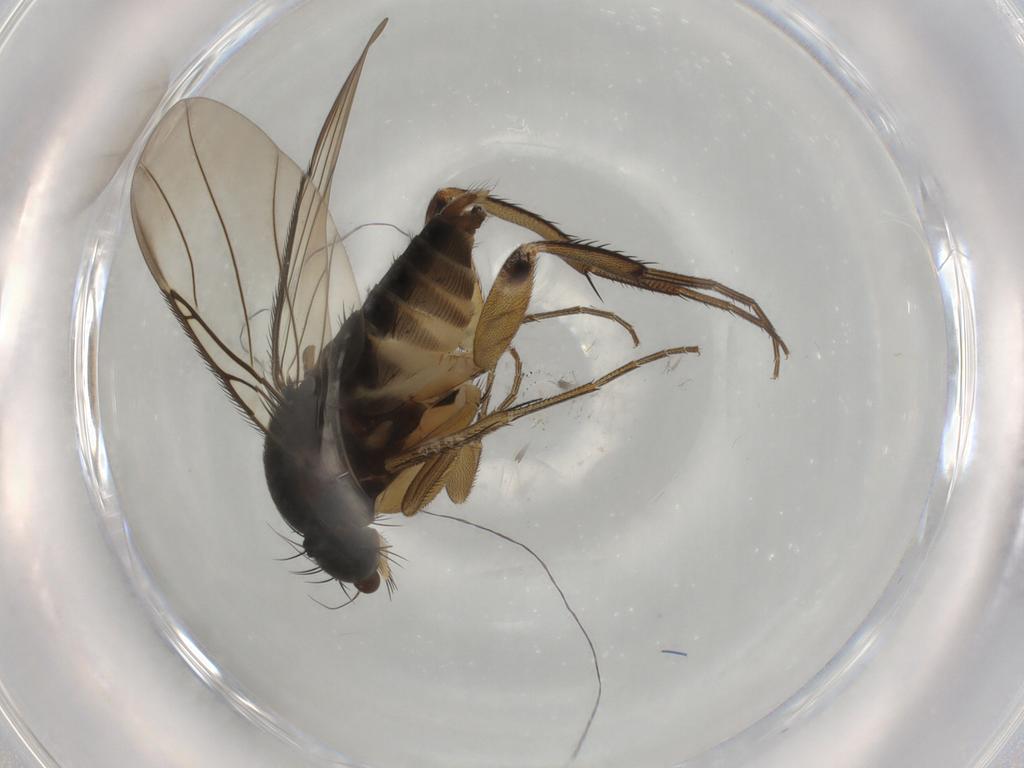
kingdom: Animalia
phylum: Arthropoda
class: Insecta
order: Diptera
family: Phoridae
